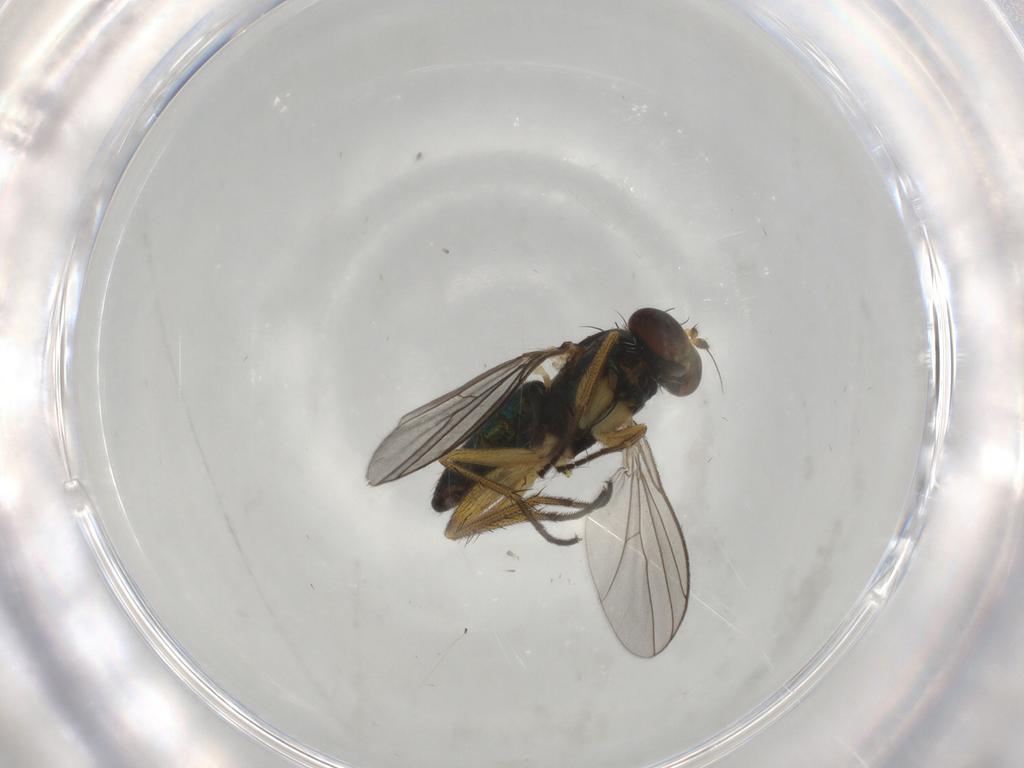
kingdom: Animalia
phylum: Arthropoda
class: Insecta
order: Diptera
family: Dolichopodidae
